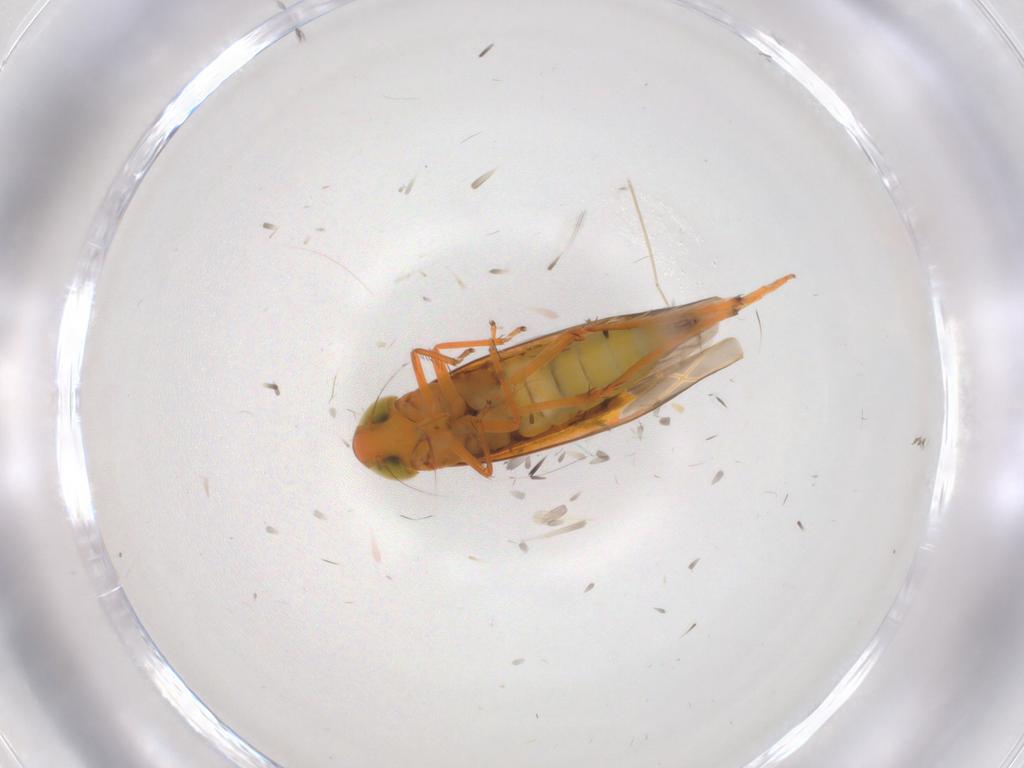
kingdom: Animalia
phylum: Arthropoda
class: Insecta
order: Hemiptera
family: Cicadellidae
